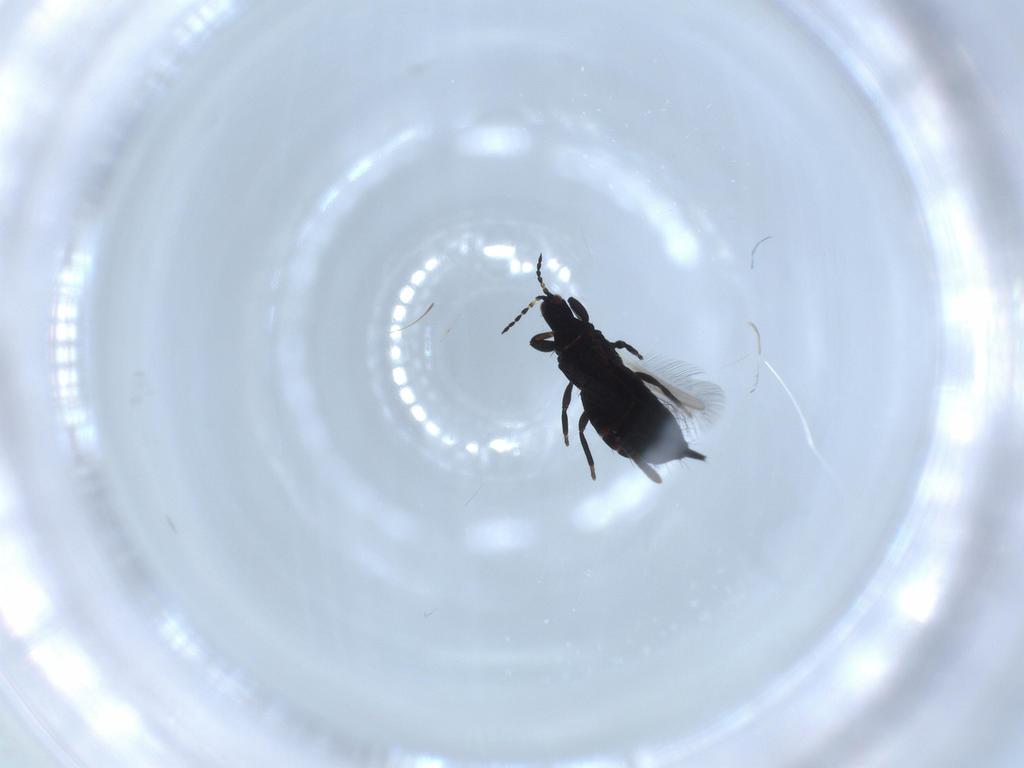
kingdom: Animalia
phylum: Arthropoda
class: Insecta
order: Thysanoptera
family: Phlaeothripidae
